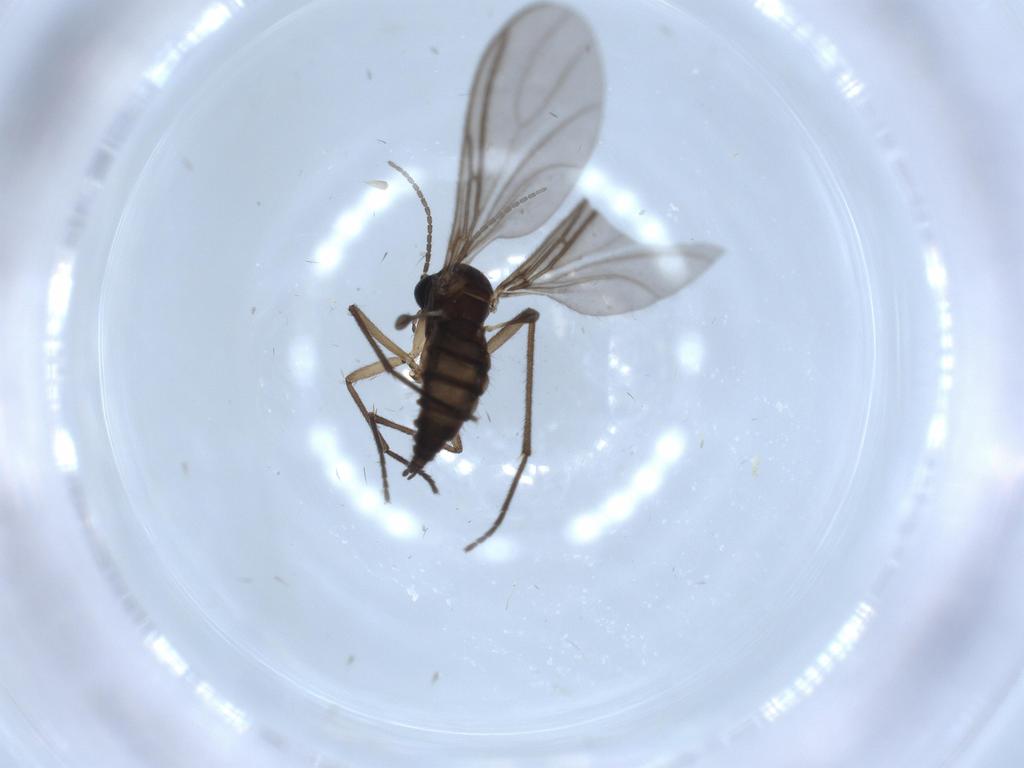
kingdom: Animalia
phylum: Arthropoda
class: Insecta
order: Diptera
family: Sciaridae
